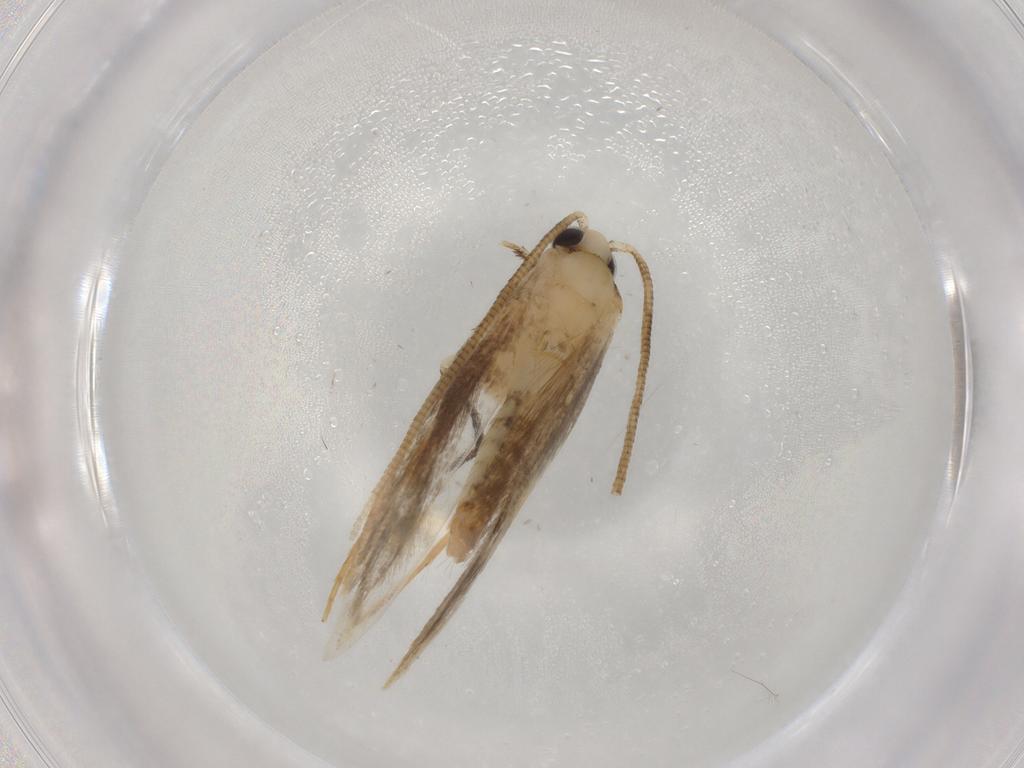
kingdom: Animalia
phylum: Arthropoda
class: Insecta
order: Lepidoptera
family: Tineidae
